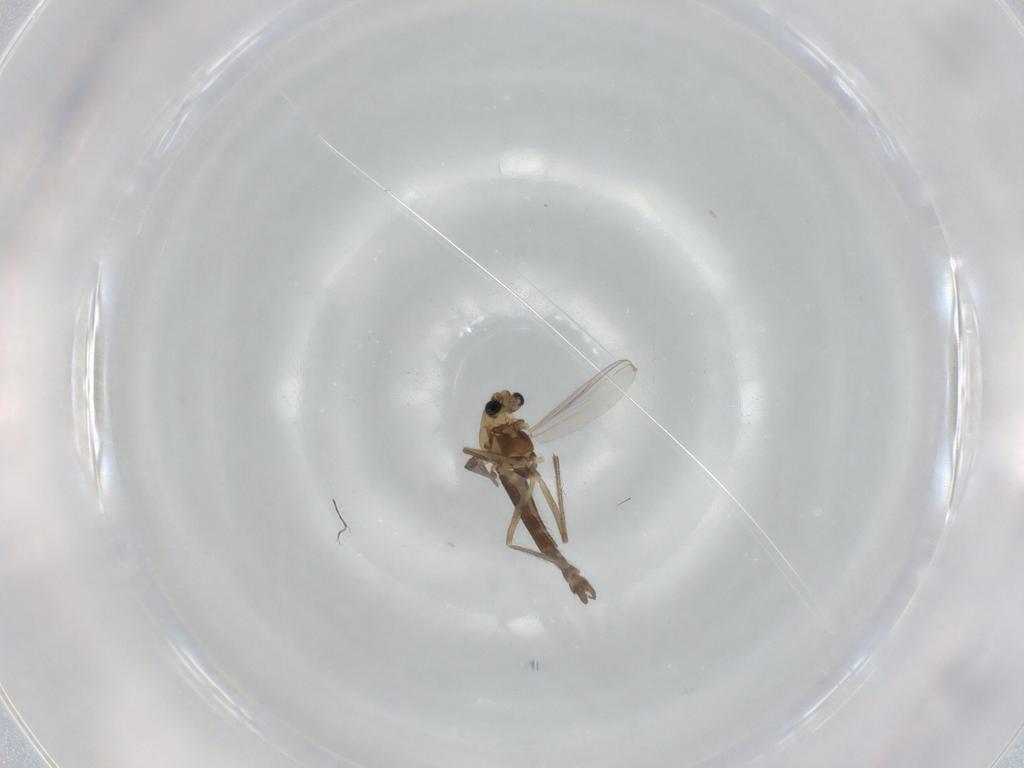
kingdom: Animalia
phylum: Arthropoda
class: Insecta
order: Diptera
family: Chironomidae
